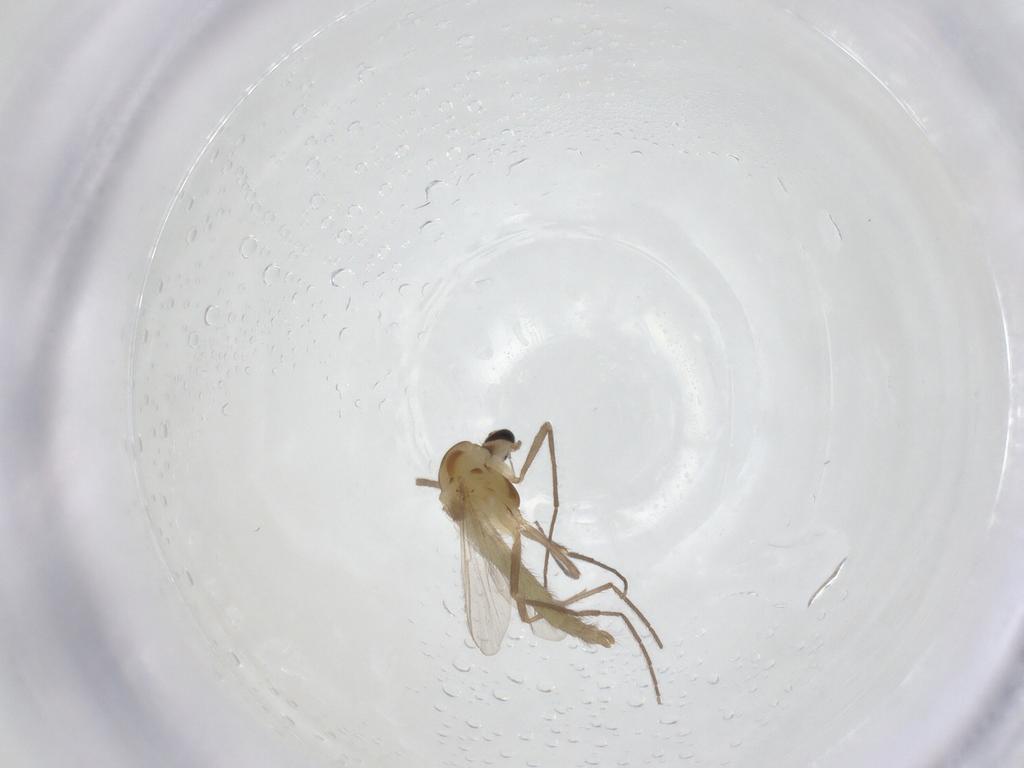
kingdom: Animalia
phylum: Arthropoda
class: Insecta
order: Diptera
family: Chironomidae
